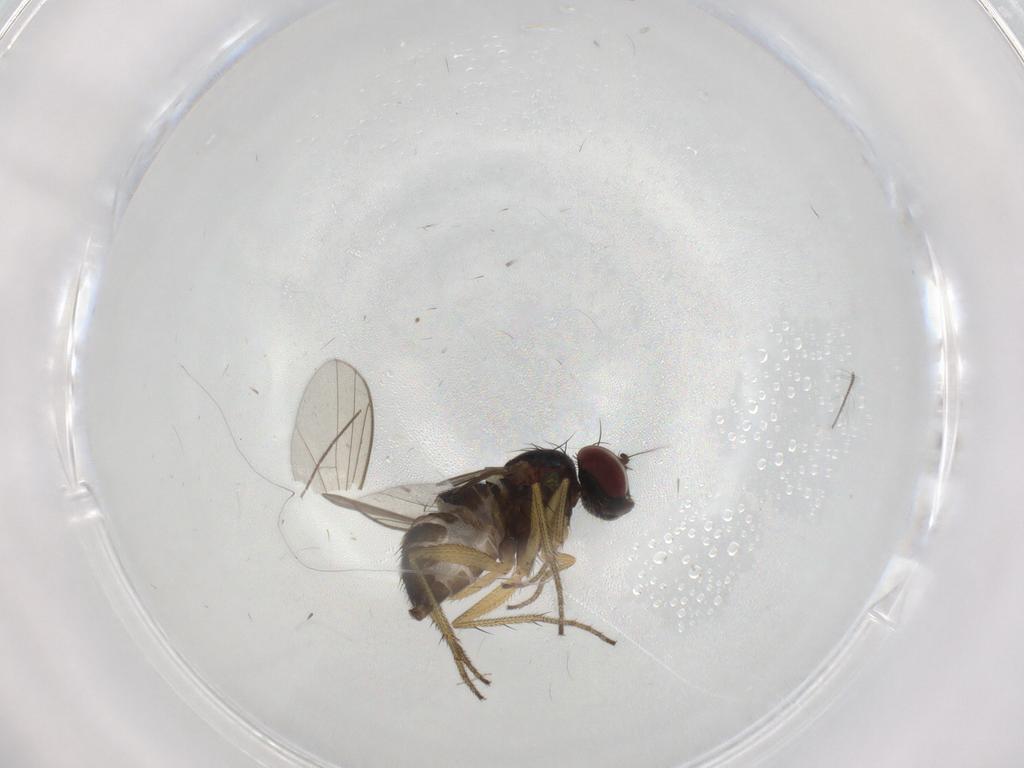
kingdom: Animalia
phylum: Arthropoda
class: Insecta
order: Diptera
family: Dolichopodidae
